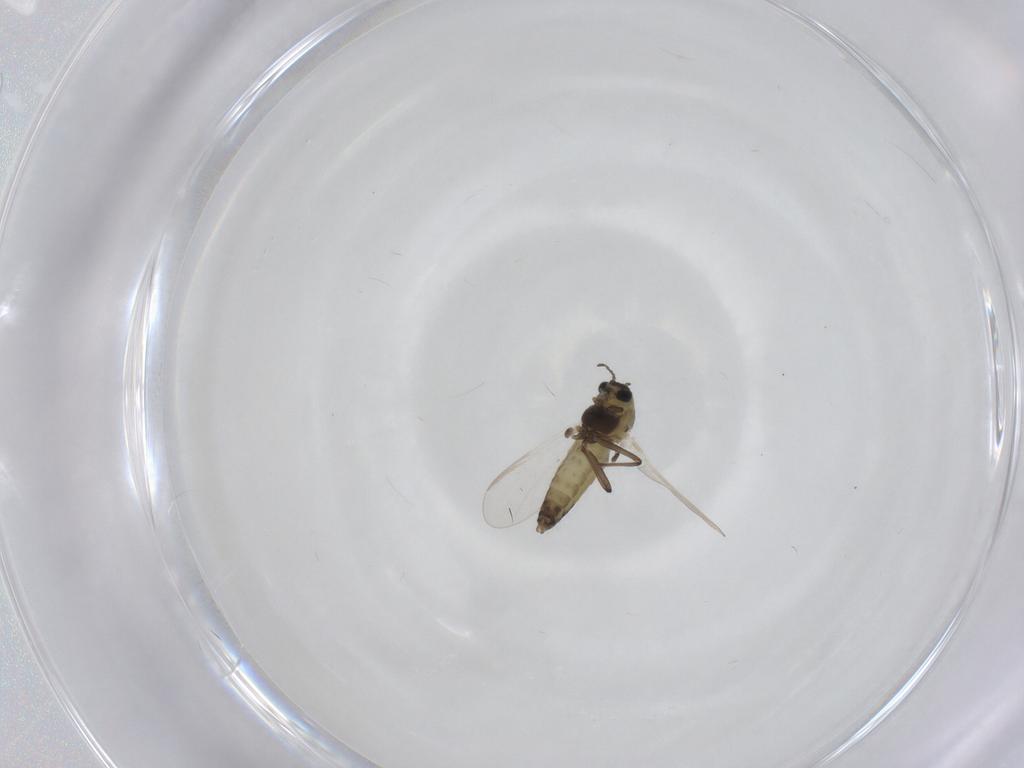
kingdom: Animalia
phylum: Arthropoda
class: Insecta
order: Diptera
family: Chironomidae
